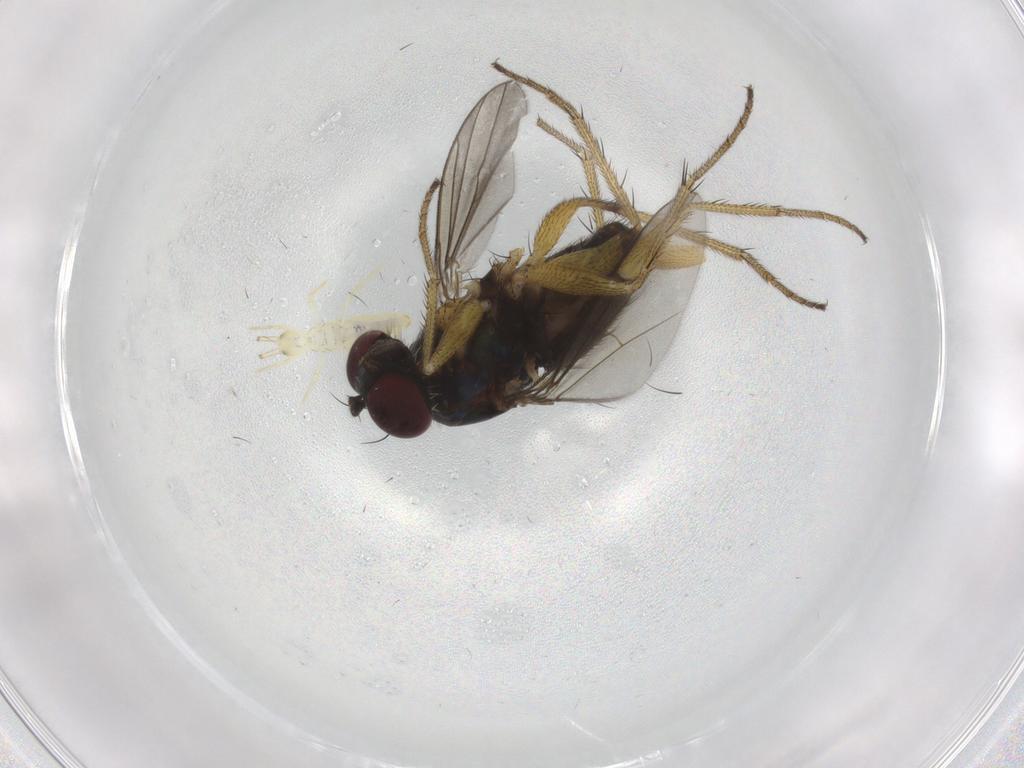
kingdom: Animalia
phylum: Arthropoda
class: Insecta
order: Diptera
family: Dolichopodidae
